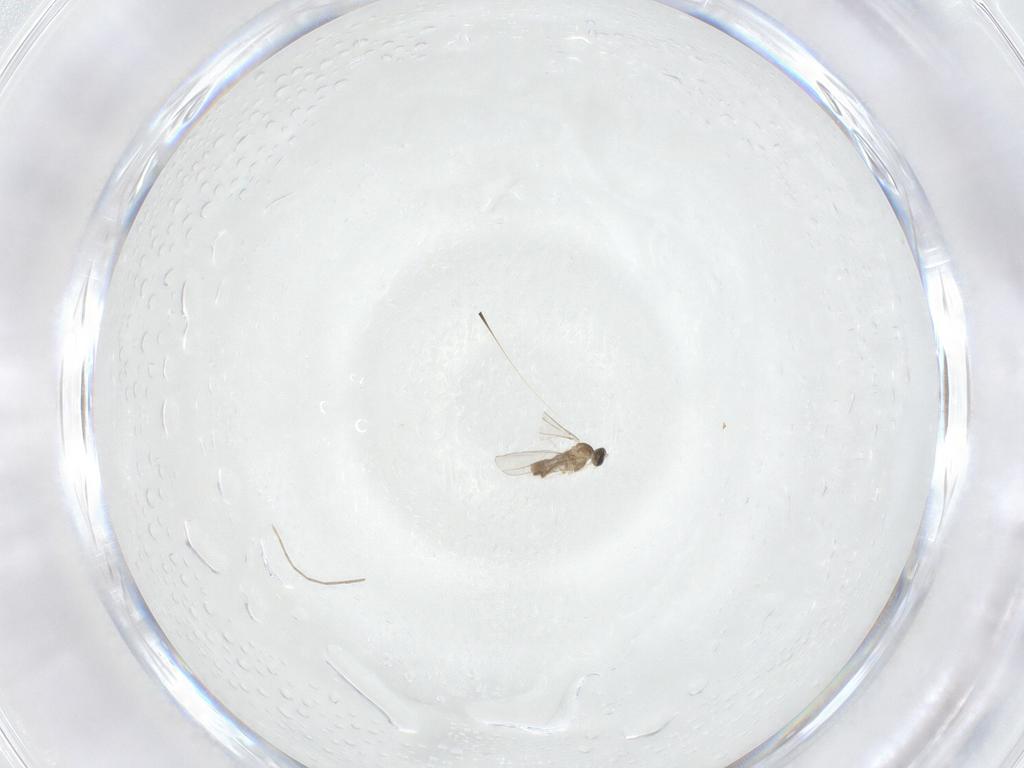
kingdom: Animalia
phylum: Arthropoda
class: Insecta
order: Diptera
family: Cecidomyiidae
